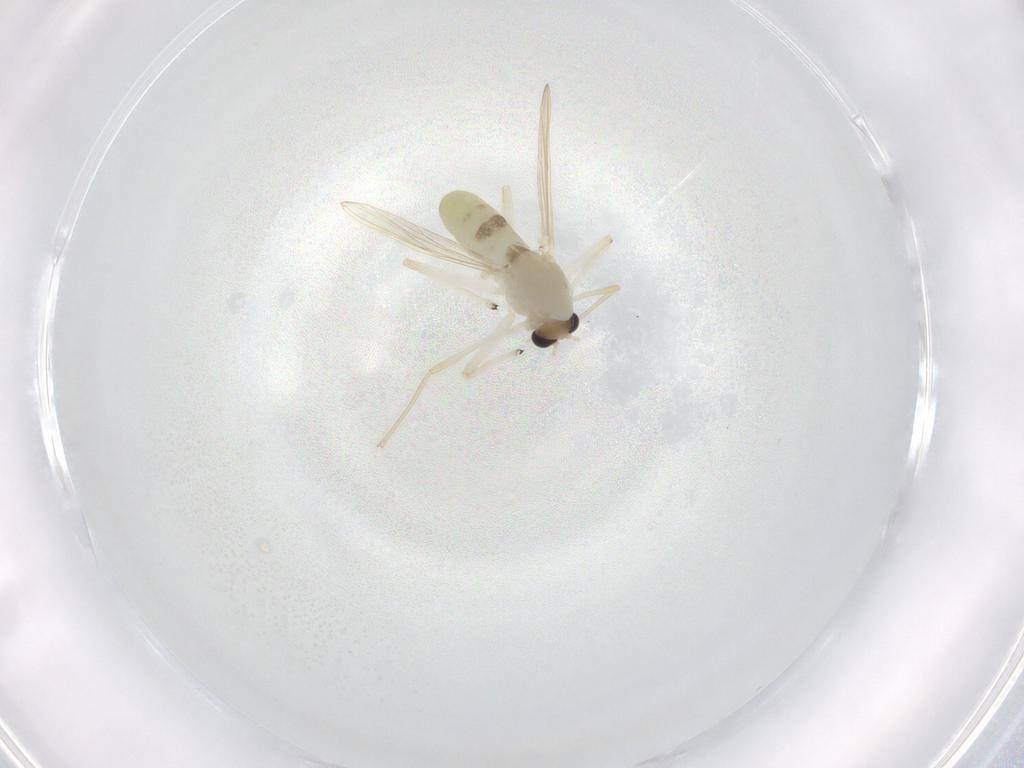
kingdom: Animalia
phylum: Arthropoda
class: Insecta
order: Diptera
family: Chironomidae
